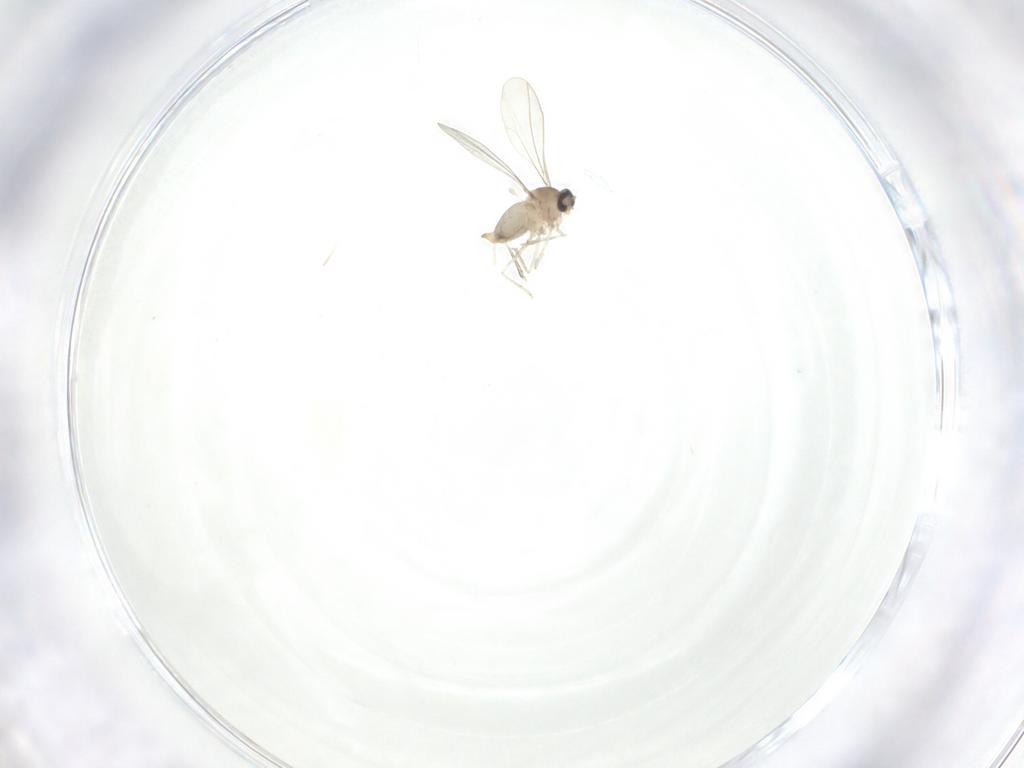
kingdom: Animalia
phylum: Arthropoda
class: Insecta
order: Diptera
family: Cecidomyiidae
